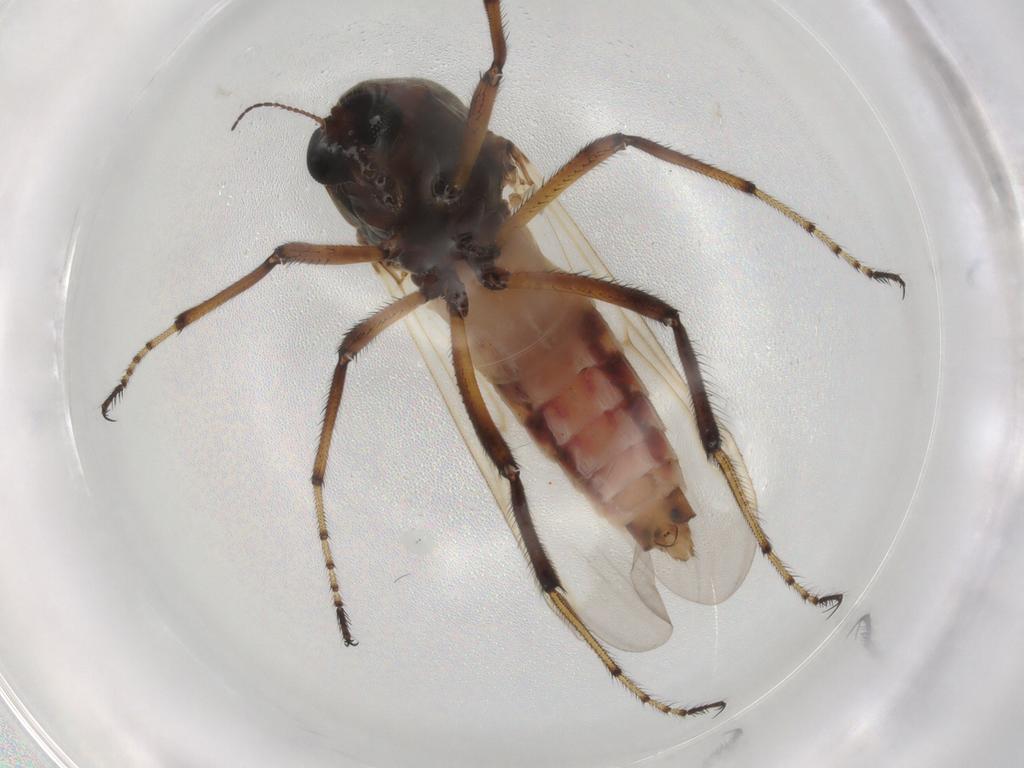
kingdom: Animalia
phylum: Arthropoda
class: Insecta
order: Diptera
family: Ceratopogonidae
